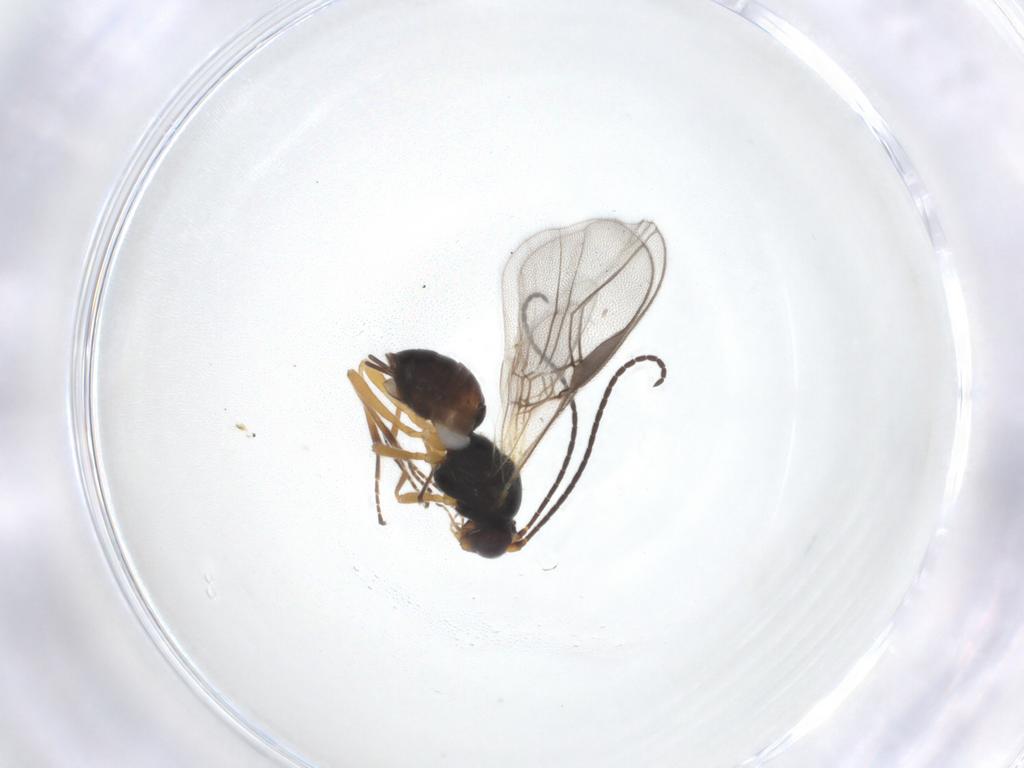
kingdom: Animalia
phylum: Arthropoda
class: Insecta
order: Hymenoptera
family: Braconidae
